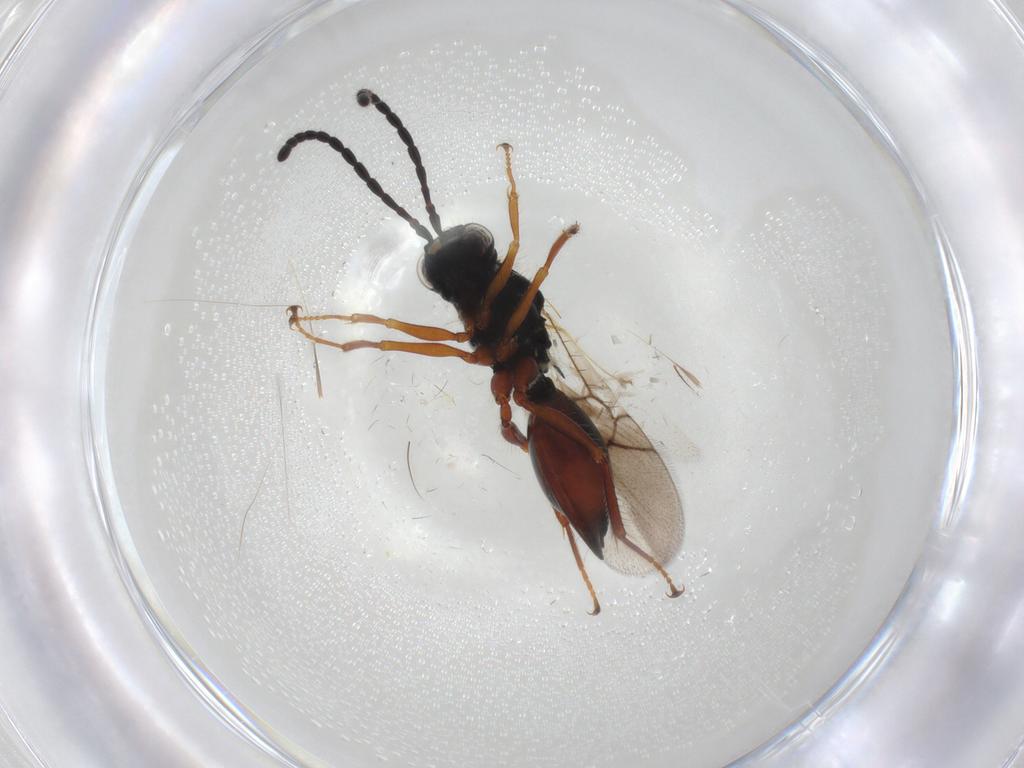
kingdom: Animalia
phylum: Arthropoda
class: Insecta
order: Hymenoptera
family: Figitidae
